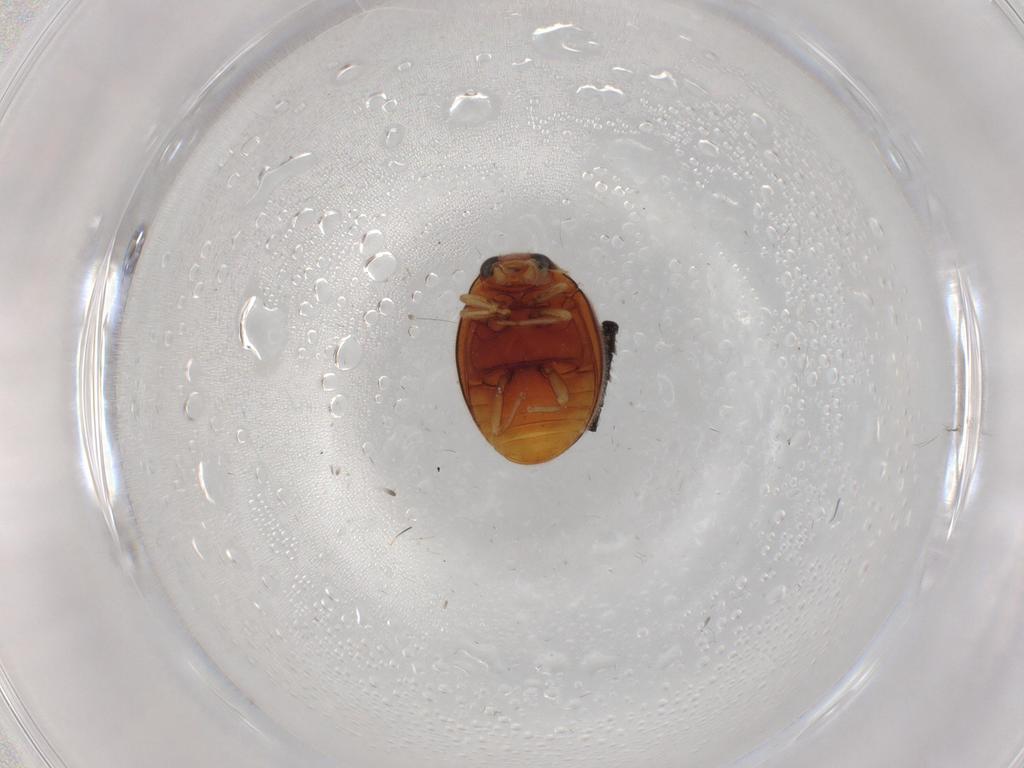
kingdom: Animalia
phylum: Arthropoda
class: Insecta
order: Coleoptera
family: Coccinellidae
